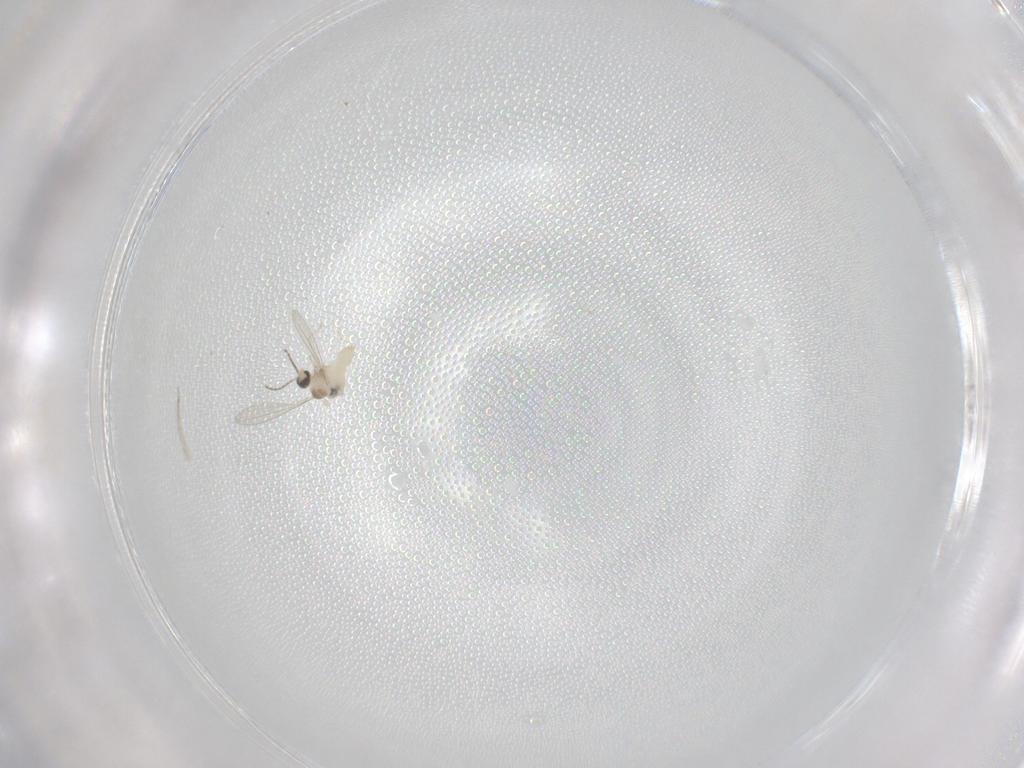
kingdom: Animalia
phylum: Arthropoda
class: Insecta
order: Diptera
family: Cecidomyiidae
